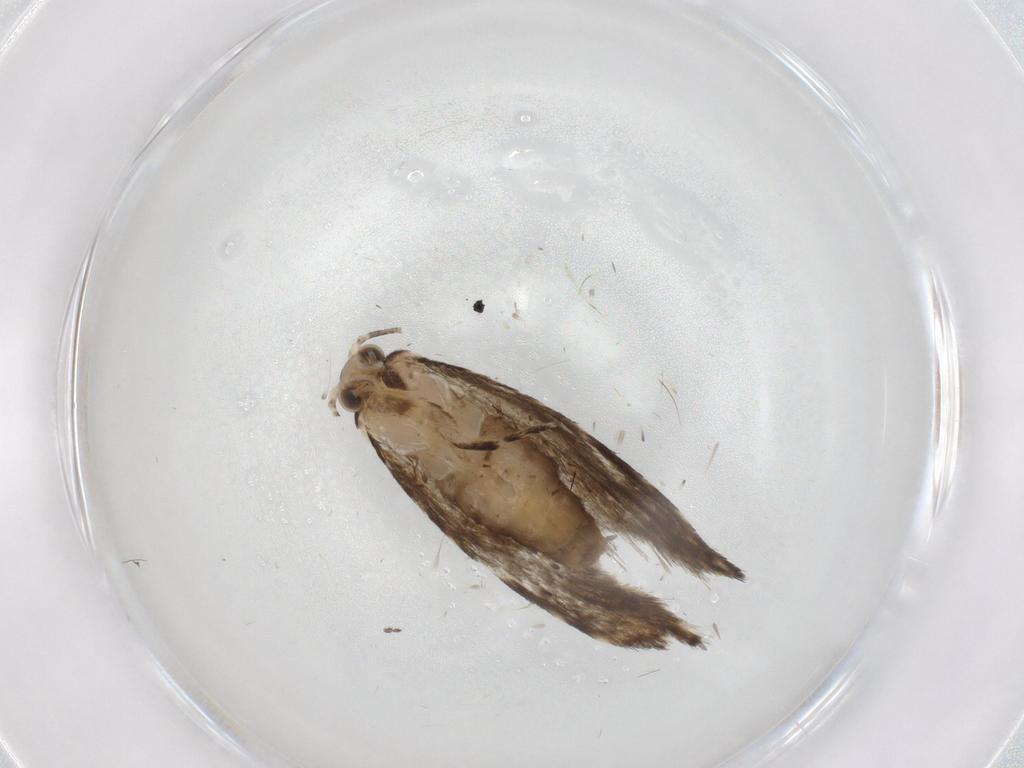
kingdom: Animalia
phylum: Arthropoda
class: Insecta
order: Lepidoptera
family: Tineidae
